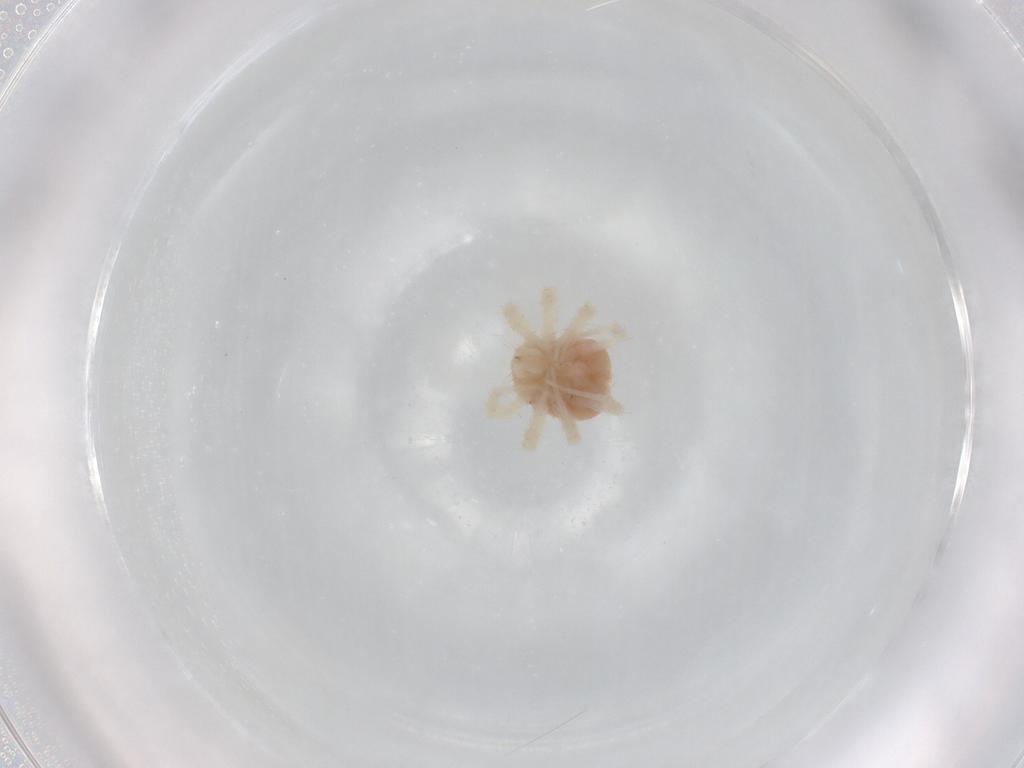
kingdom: Animalia
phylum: Arthropoda
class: Arachnida
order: Trombidiformes
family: Anystidae
